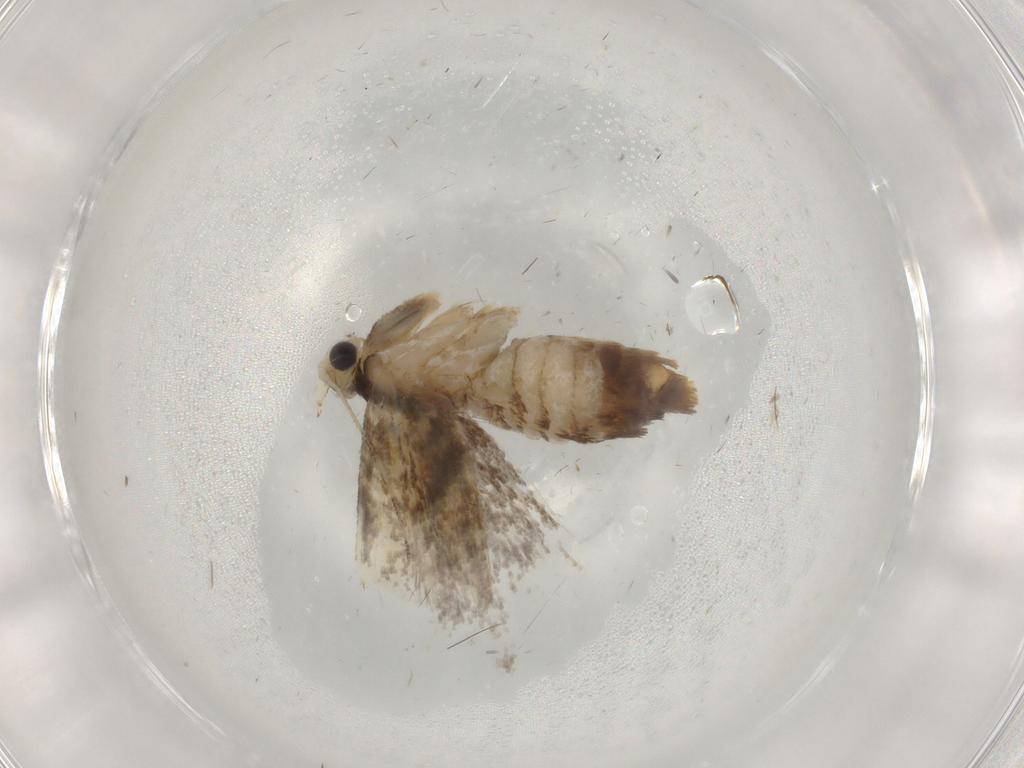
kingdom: Animalia
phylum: Arthropoda
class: Insecta
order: Lepidoptera
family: Tineidae
